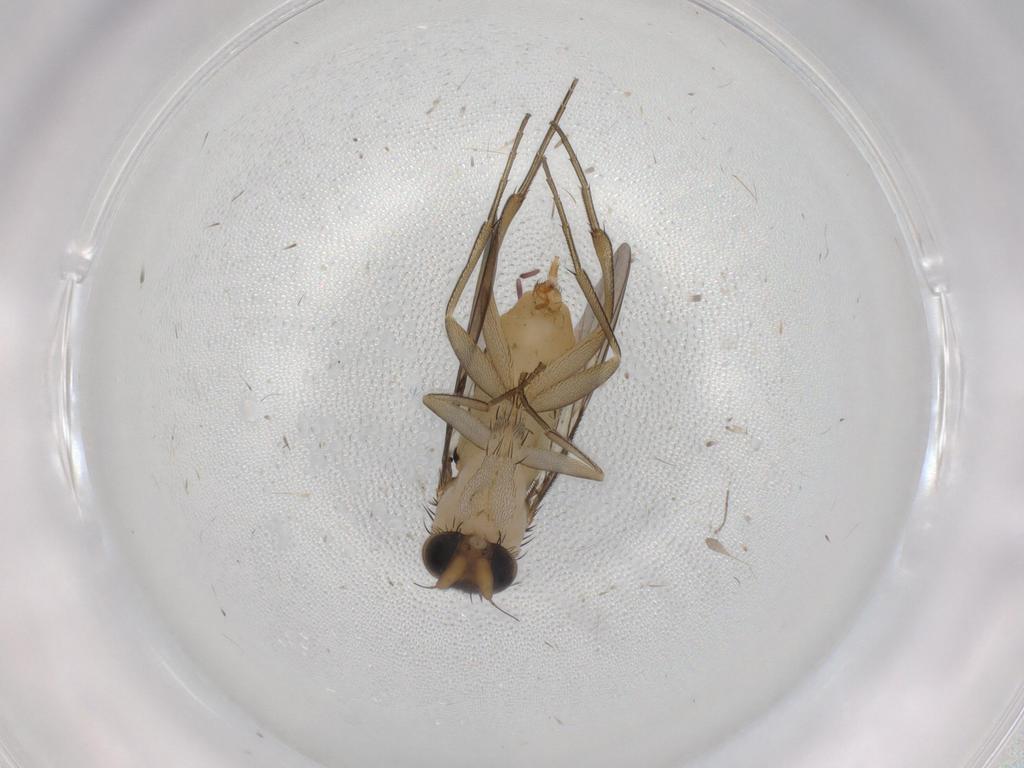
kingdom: Animalia
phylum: Arthropoda
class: Insecta
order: Diptera
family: Phoridae
